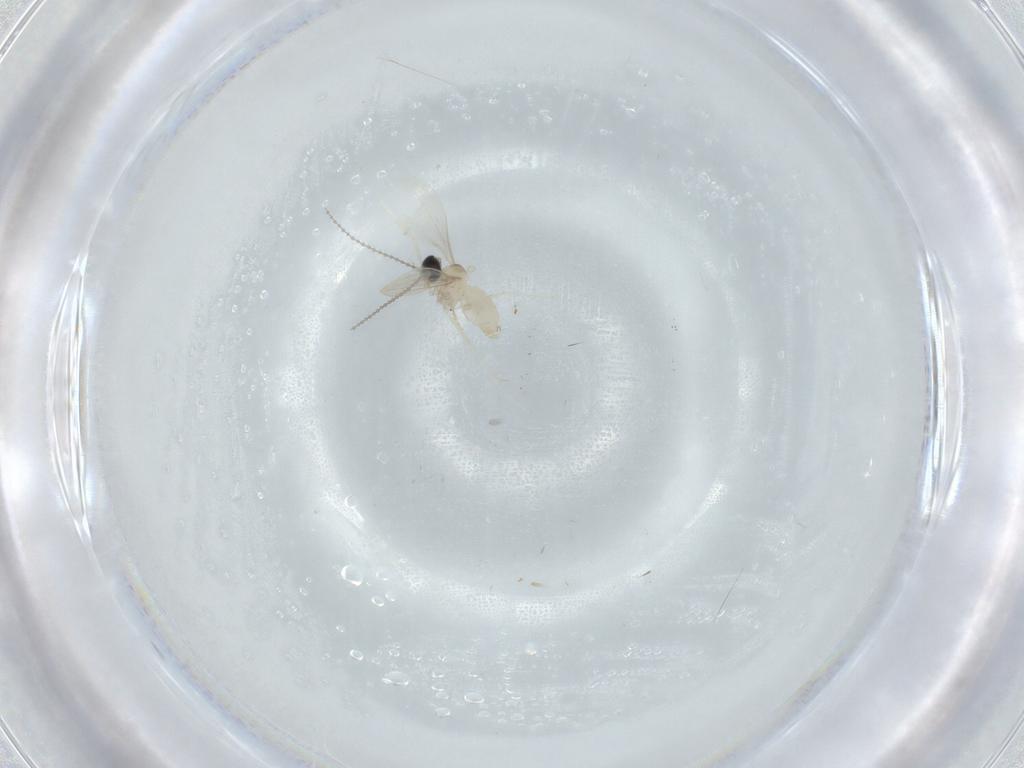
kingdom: Animalia
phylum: Arthropoda
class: Insecta
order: Diptera
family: Cecidomyiidae
